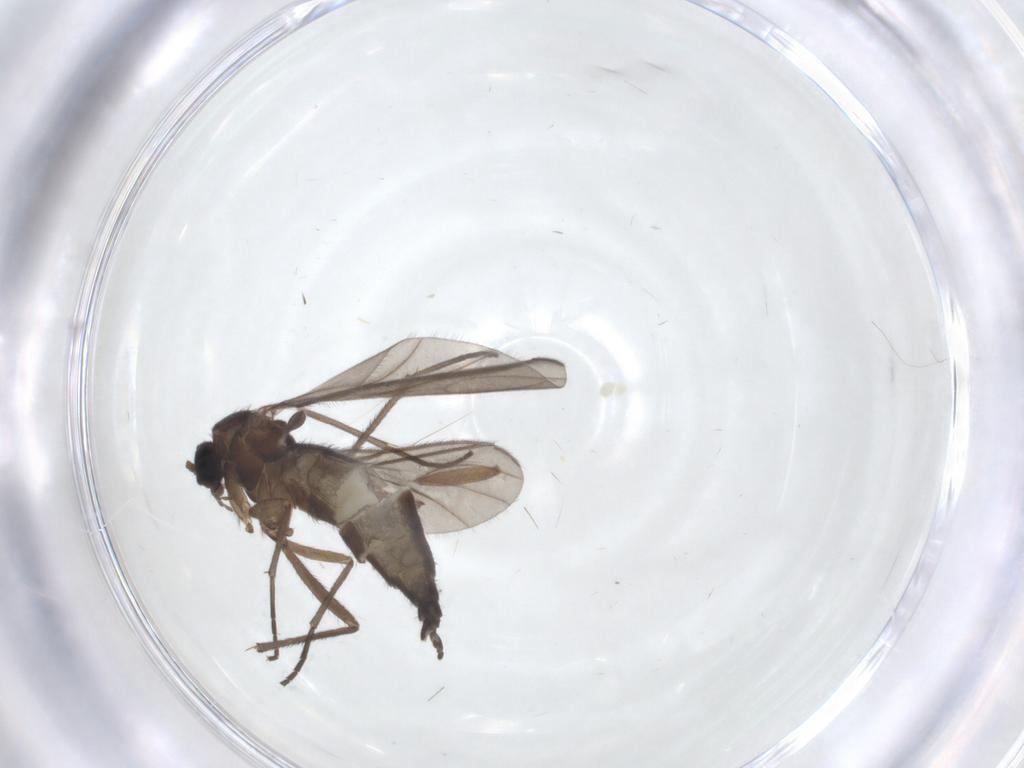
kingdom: Animalia
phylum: Arthropoda
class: Insecta
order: Diptera
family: Sciaridae
